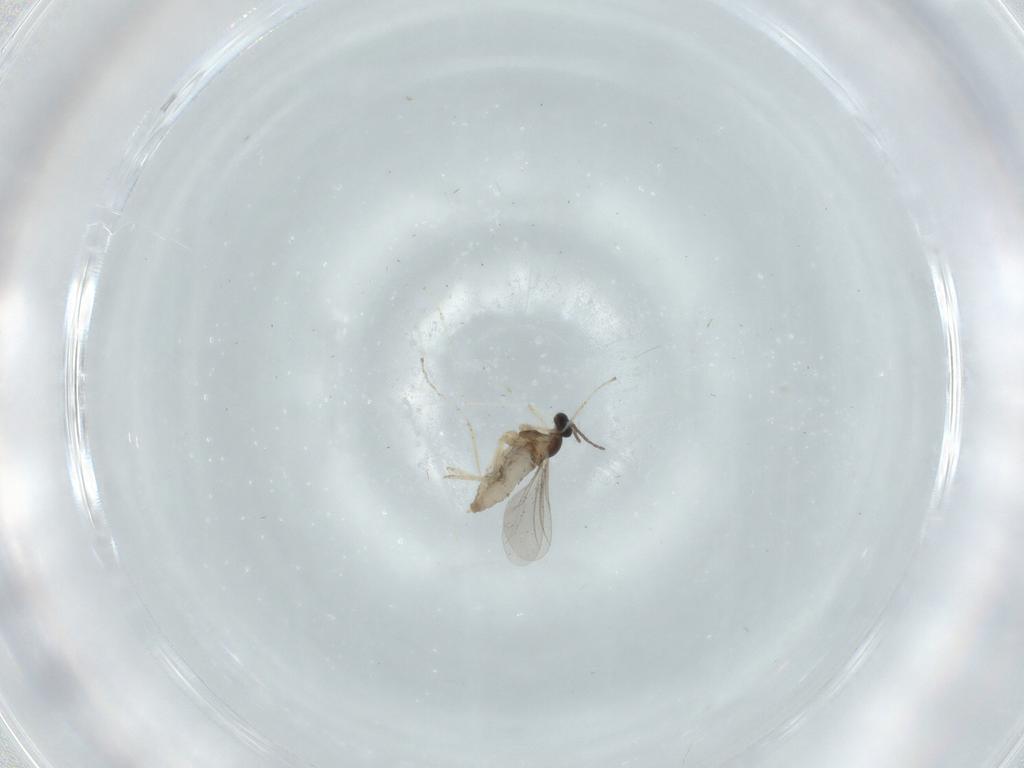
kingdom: Animalia
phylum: Arthropoda
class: Insecta
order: Diptera
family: Cecidomyiidae
